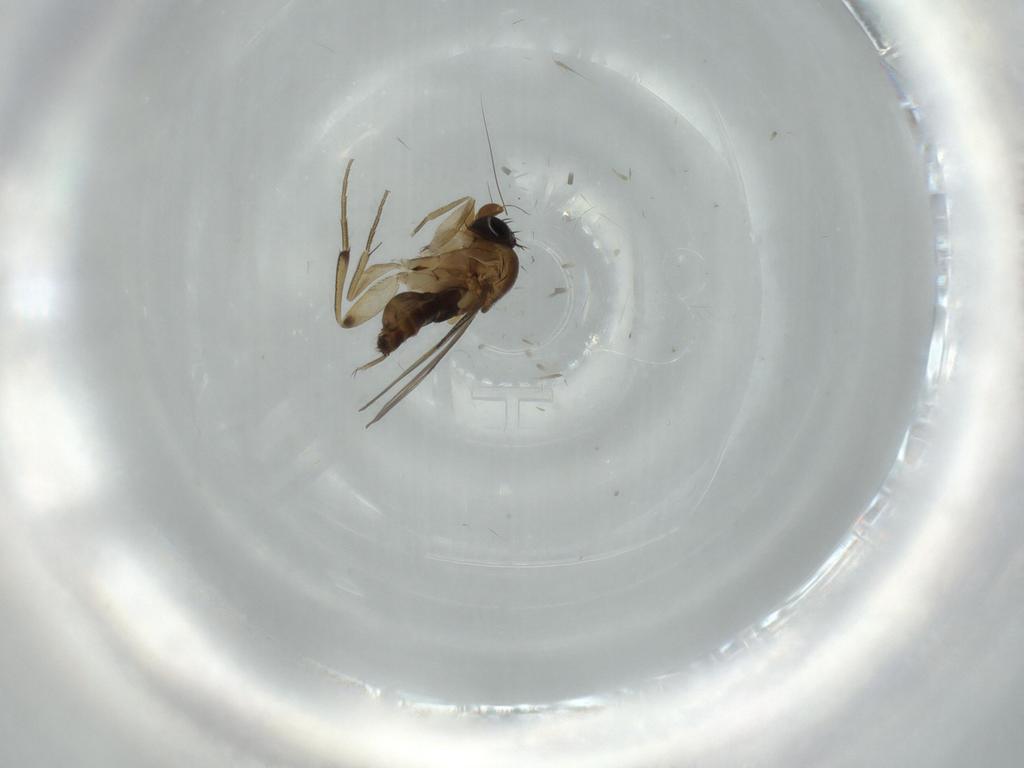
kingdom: Animalia
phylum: Arthropoda
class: Insecta
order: Diptera
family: Phoridae
